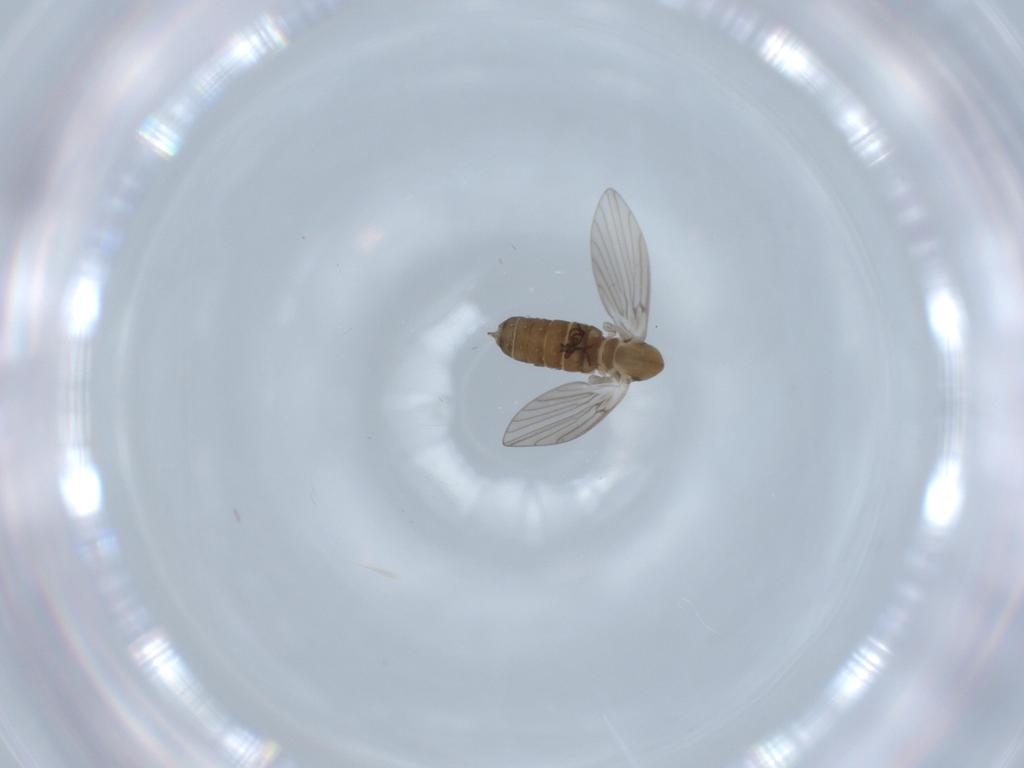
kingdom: Animalia
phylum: Arthropoda
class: Insecta
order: Diptera
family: Psychodidae
